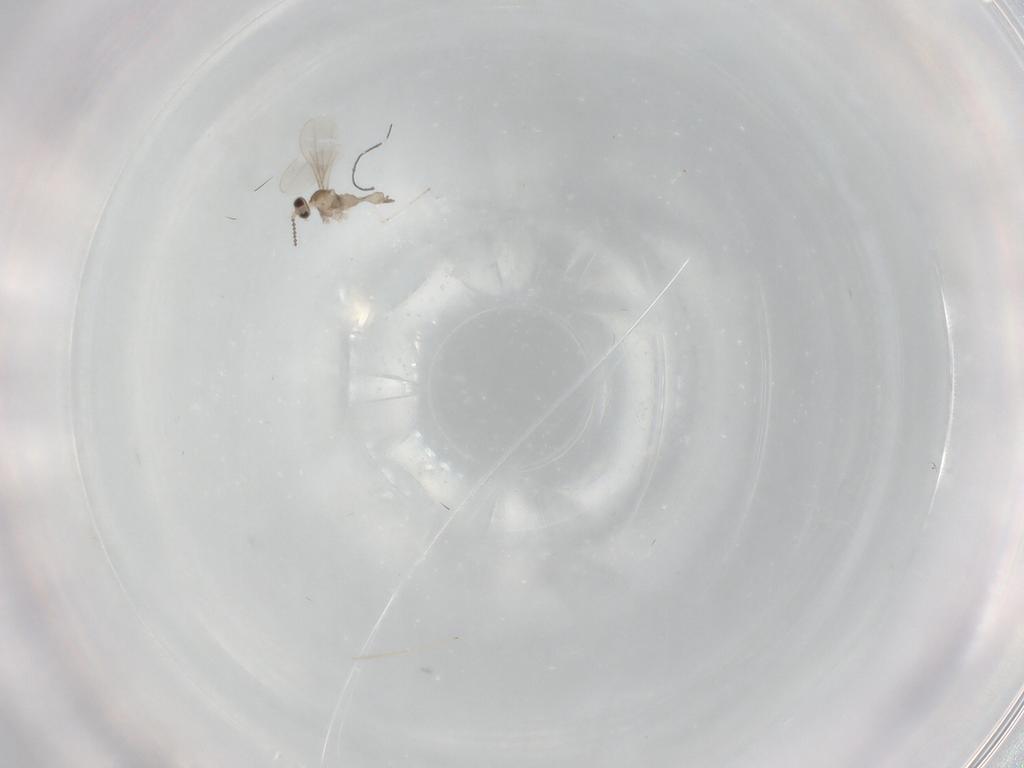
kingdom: Animalia
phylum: Arthropoda
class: Insecta
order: Diptera
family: Cecidomyiidae
